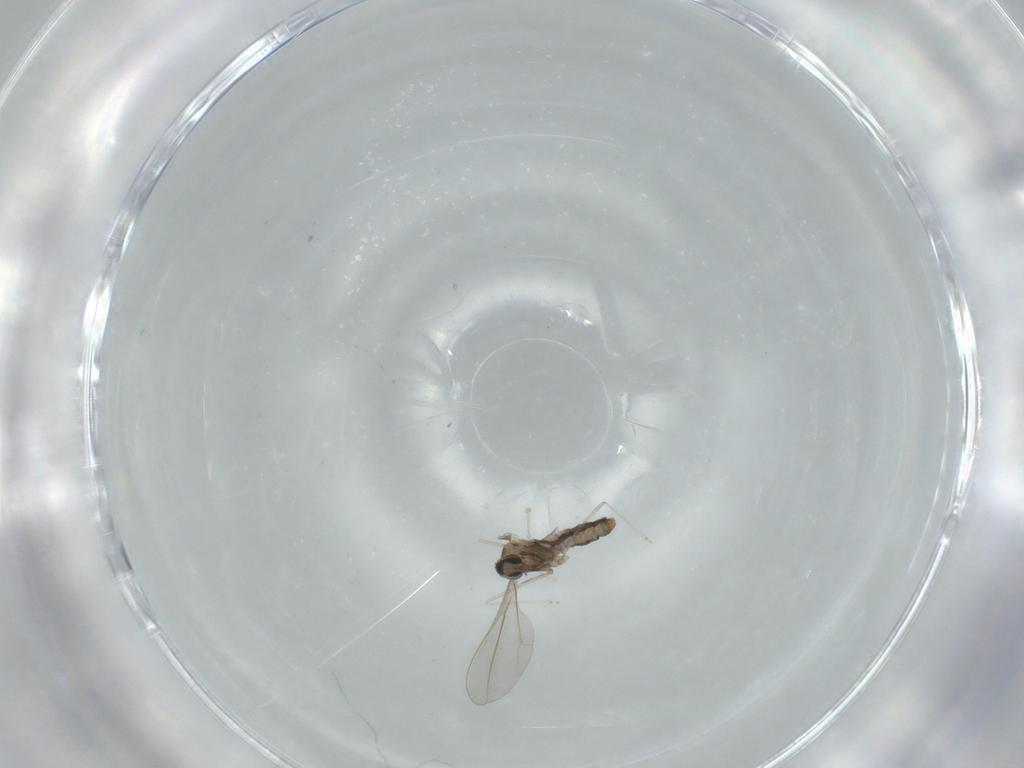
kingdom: Animalia
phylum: Arthropoda
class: Insecta
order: Diptera
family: Cecidomyiidae
